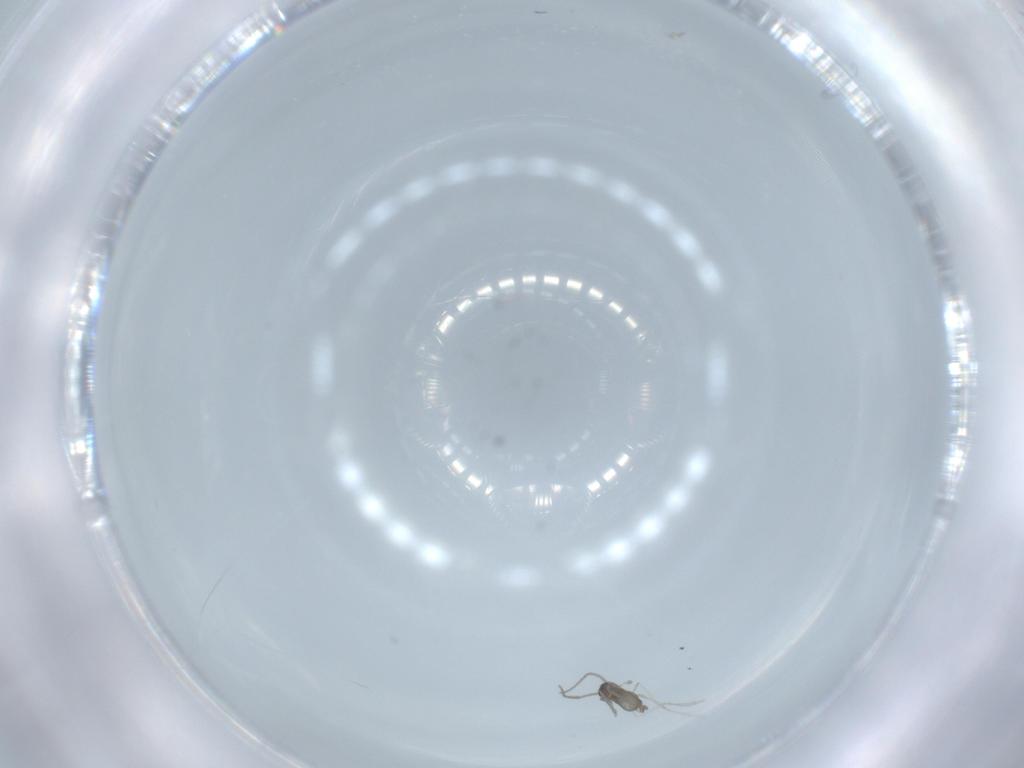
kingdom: Animalia
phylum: Arthropoda
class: Insecta
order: Diptera
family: Cecidomyiidae
